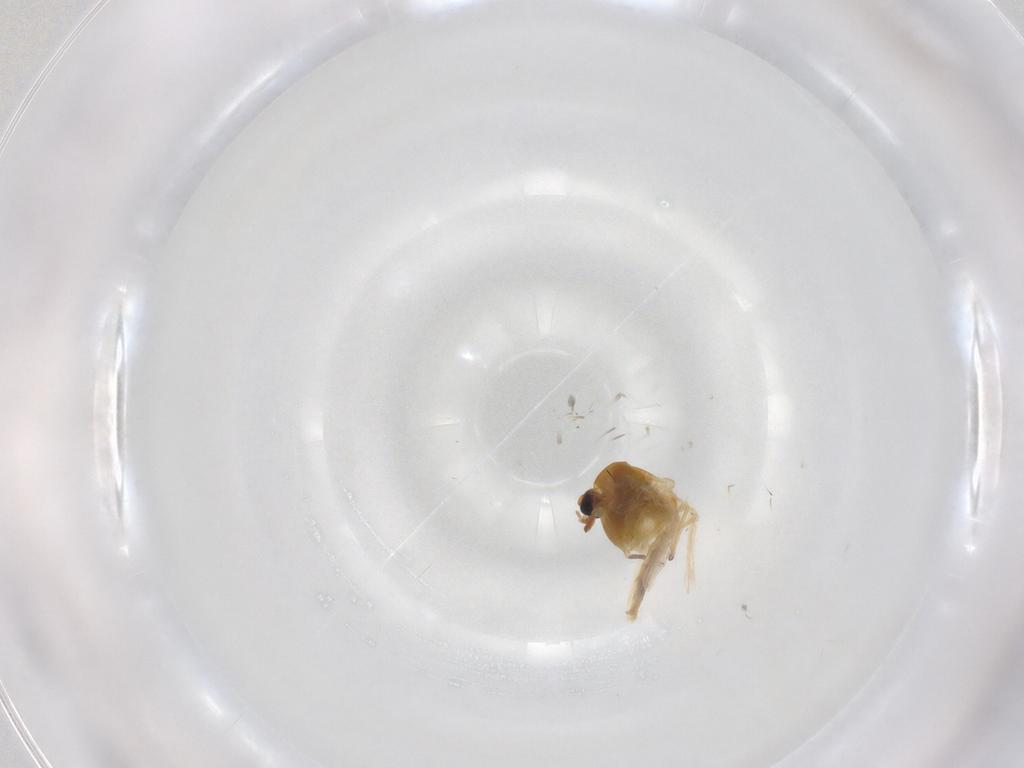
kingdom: Animalia
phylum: Arthropoda
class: Insecta
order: Diptera
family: Chironomidae
